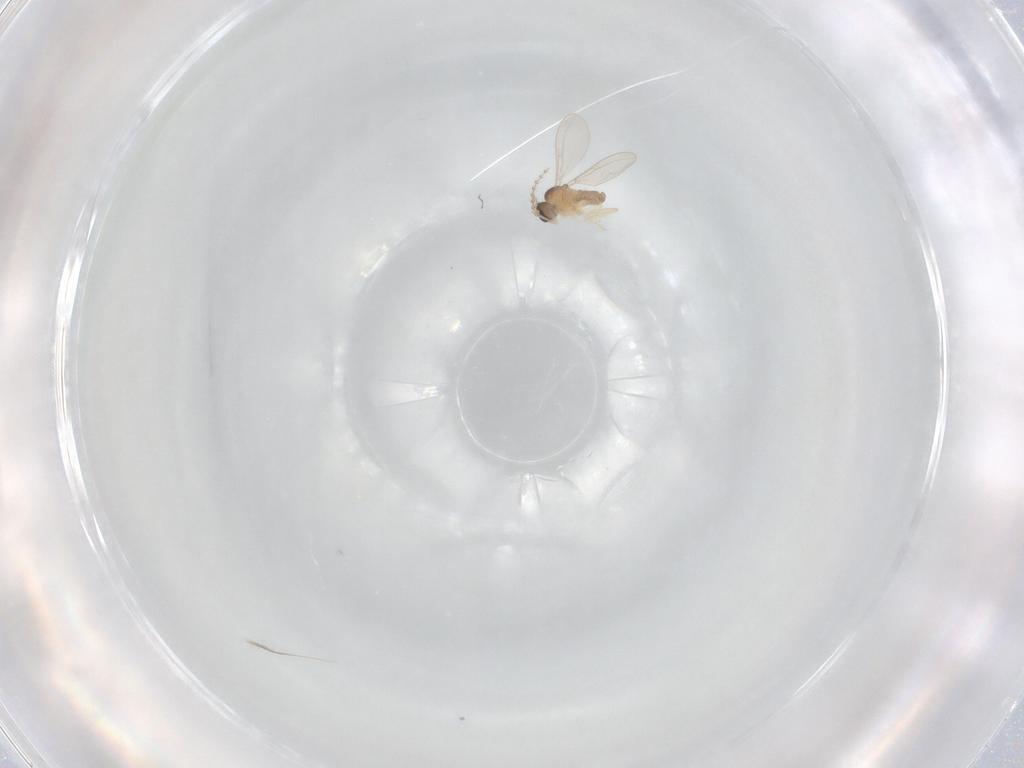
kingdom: Animalia
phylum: Arthropoda
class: Insecta
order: Diptera
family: Cecidomyiidae
